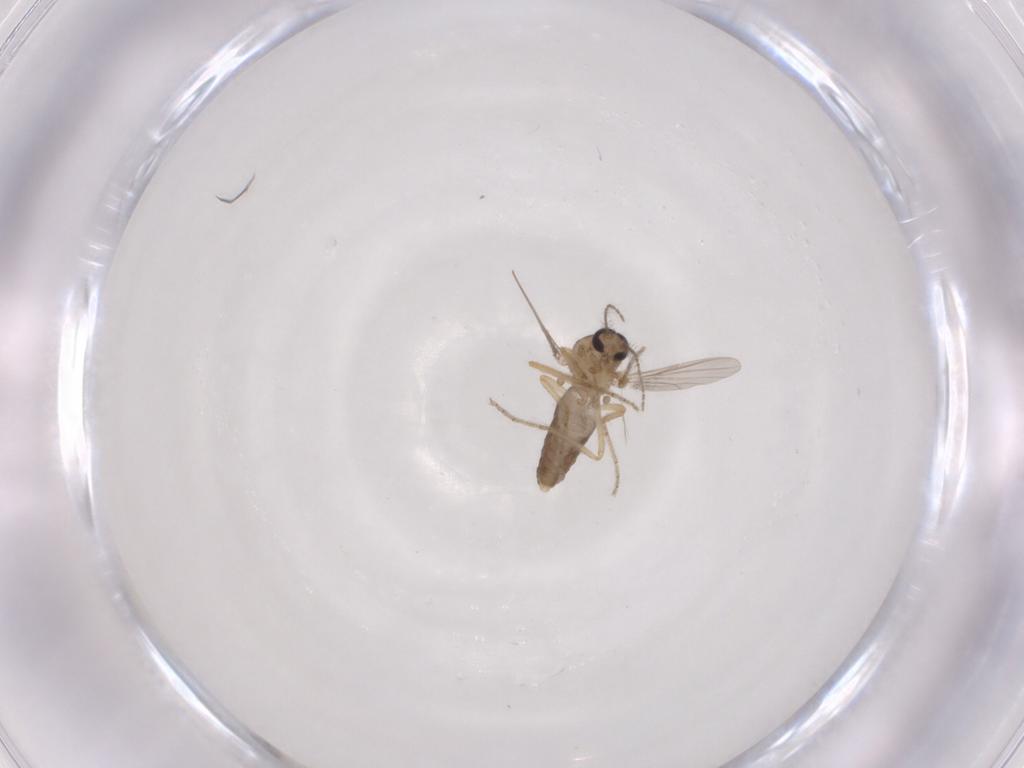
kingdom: Animalia
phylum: Arthropoda
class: Insecta
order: Diptera
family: Ceratopogonidae
